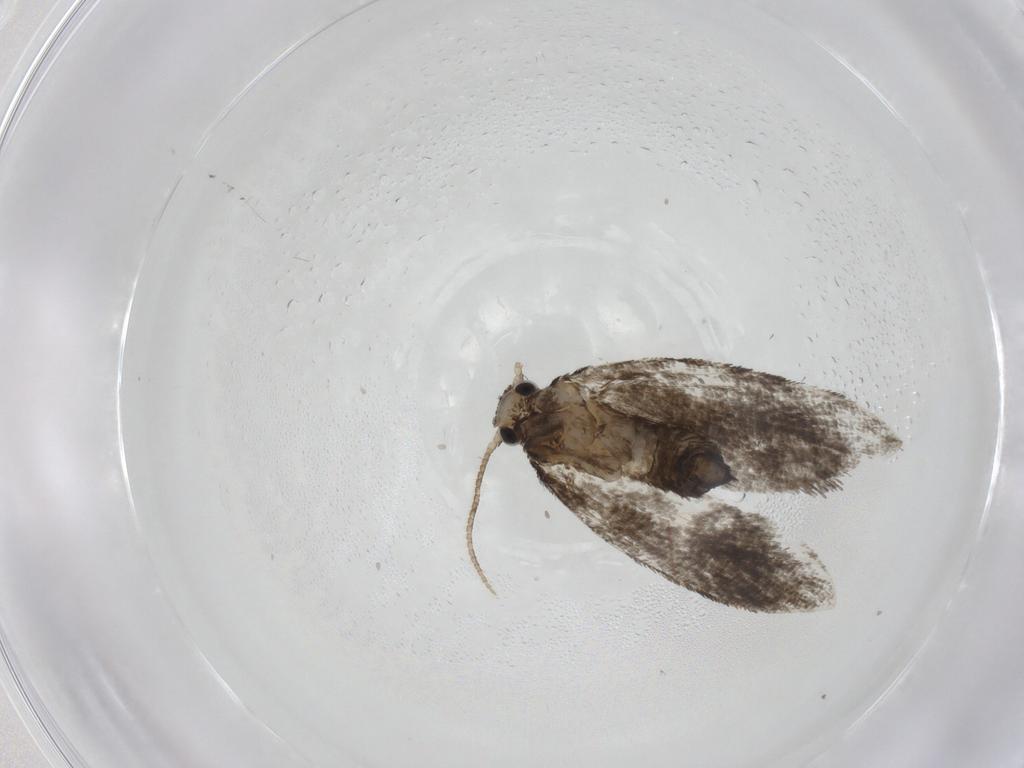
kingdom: Animalia
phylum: Arthropoda
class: Insecta
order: Lepidoptera
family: Psychidae
